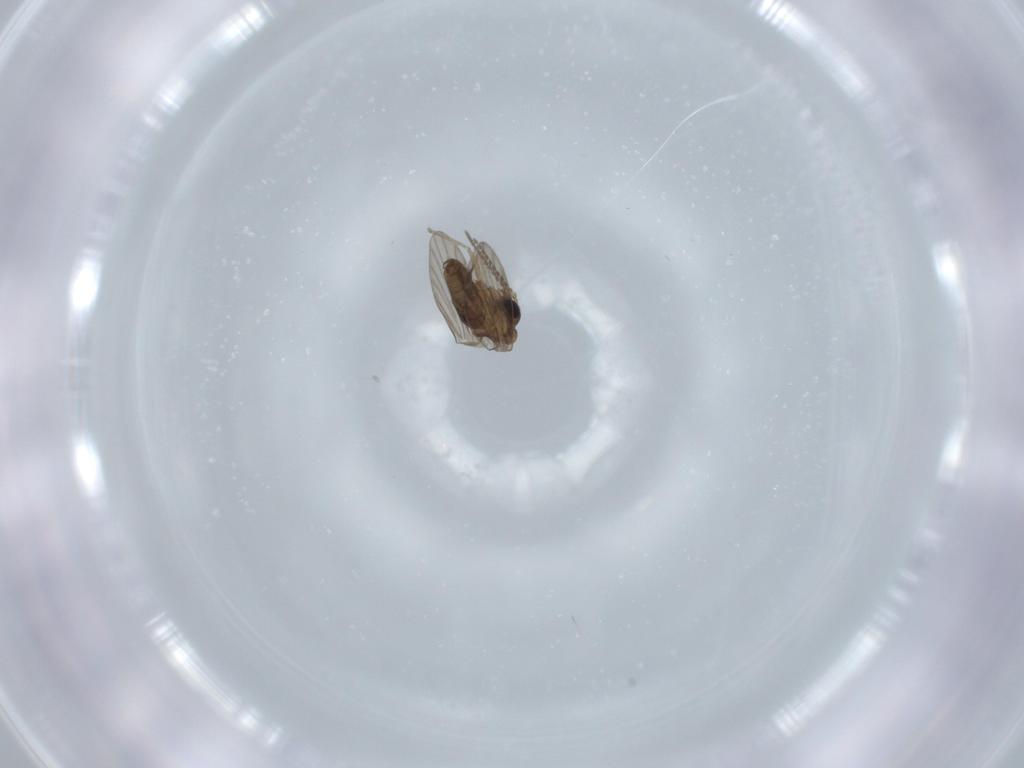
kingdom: Animalia
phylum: Arthropoda
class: Insecta
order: Diptera
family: Psychodidae
